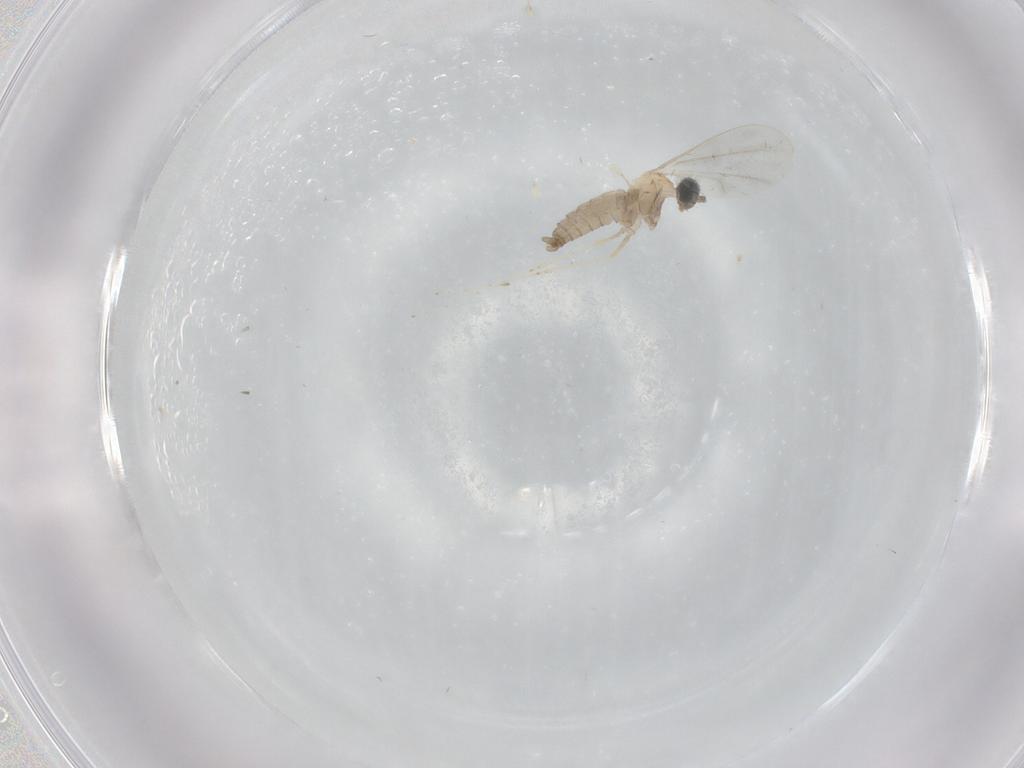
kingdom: Animalia
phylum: Arthropoda
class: Insecta
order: Diptera
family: Cecidomyiidae
